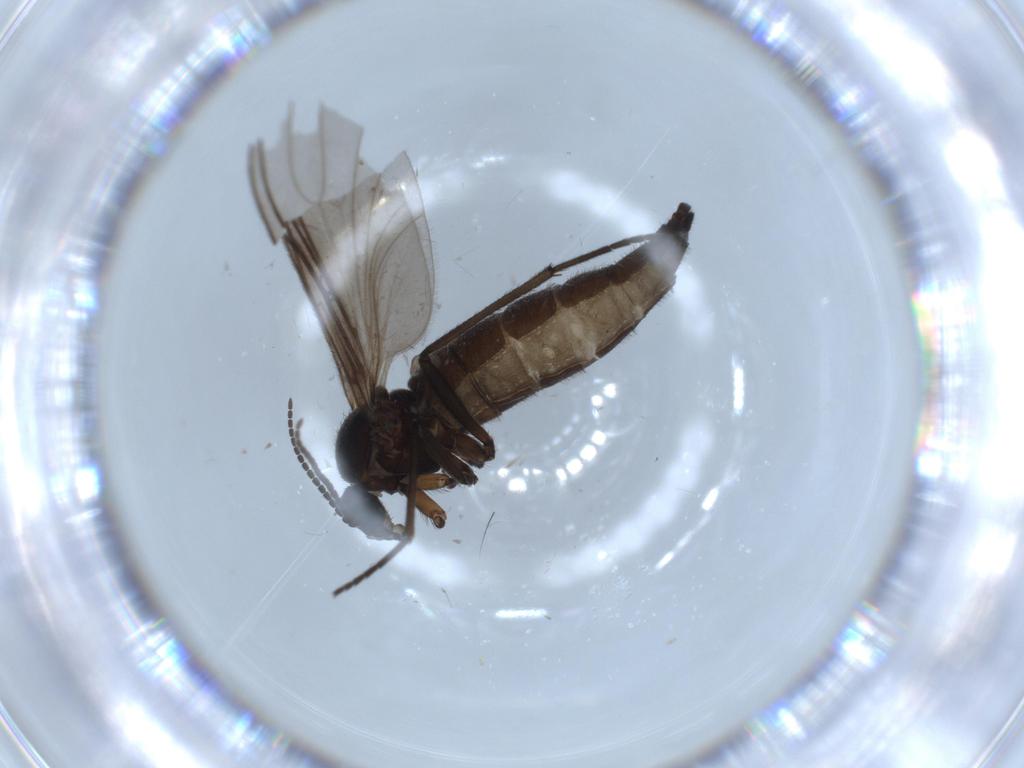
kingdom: Animalia
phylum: Arthropoda
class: Insecta
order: Diptera
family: Sciaridae
